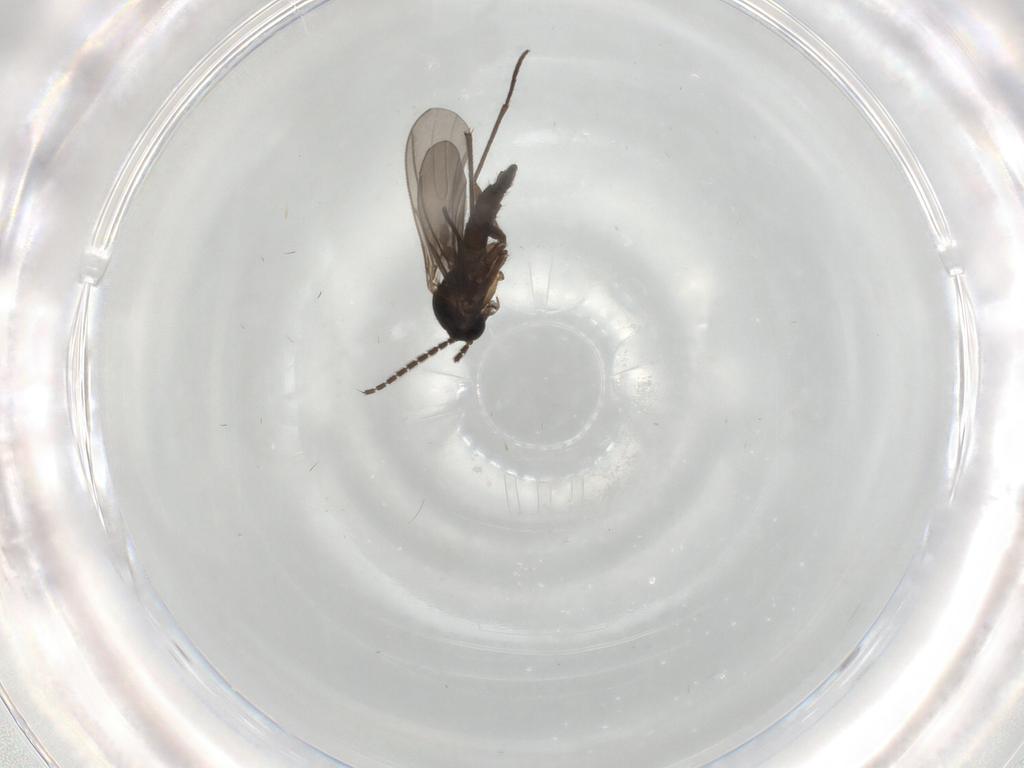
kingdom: Animalia
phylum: Arthropoda
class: Insecta
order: Diptera
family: Sciaridae
